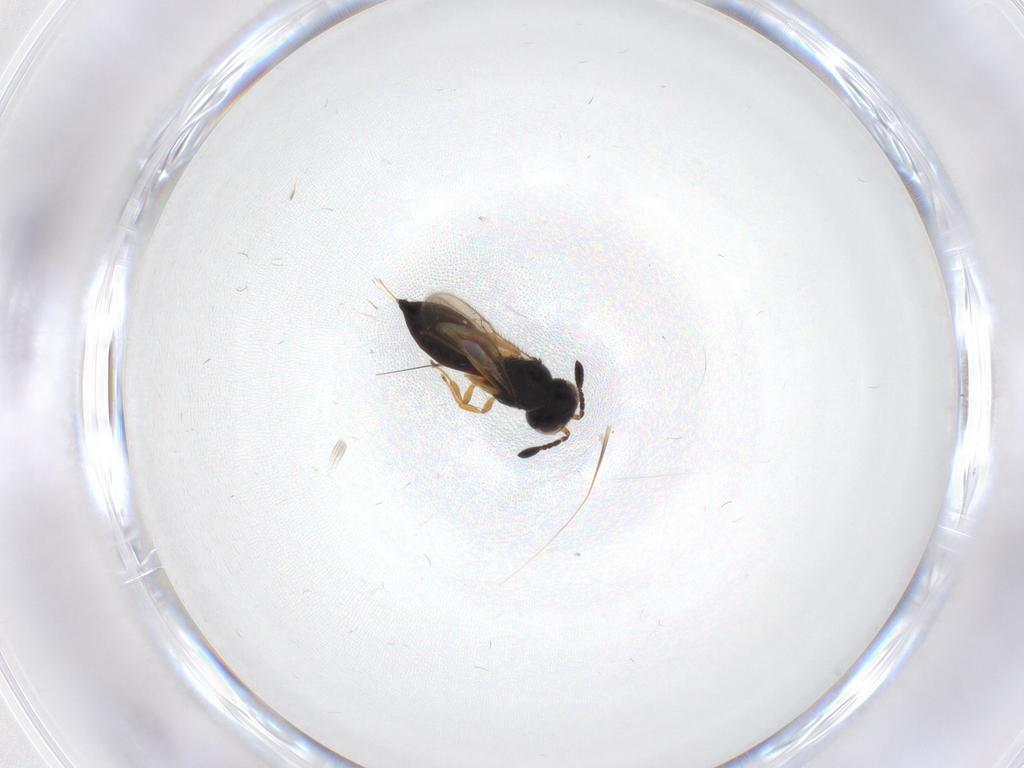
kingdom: Animalia
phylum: Arthropoda
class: Insecta
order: Hymenoptera
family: Scelionidae
